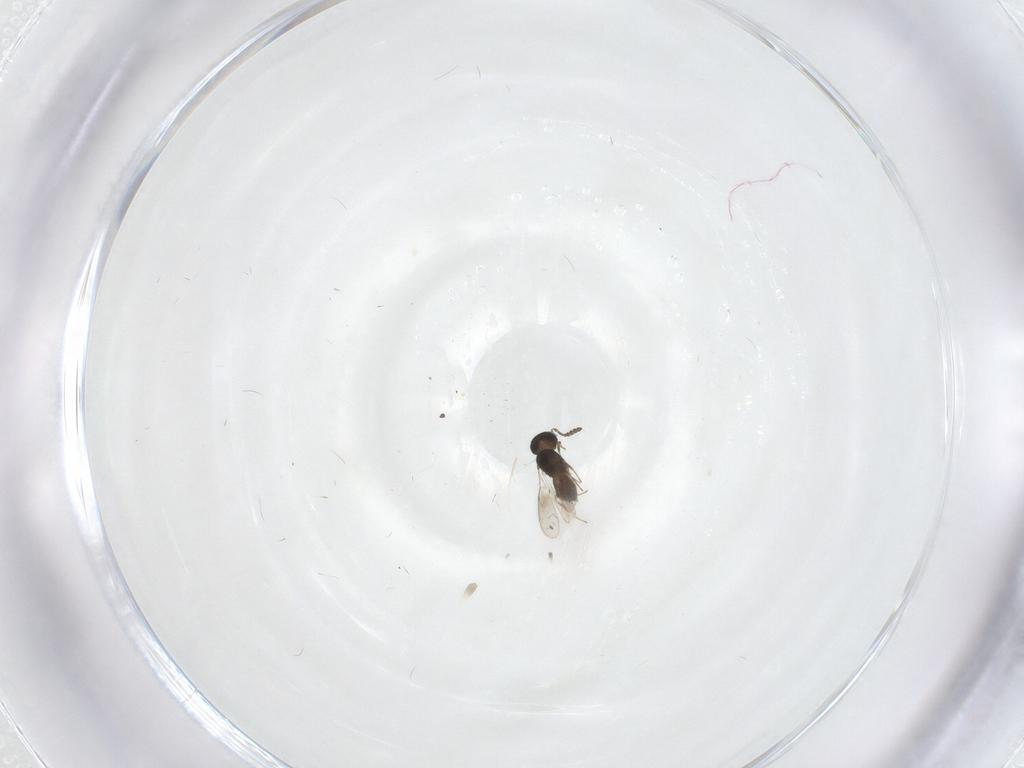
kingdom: Animalia
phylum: Arthropoda
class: Insecta
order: Hymenoptera
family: Scelionidae
